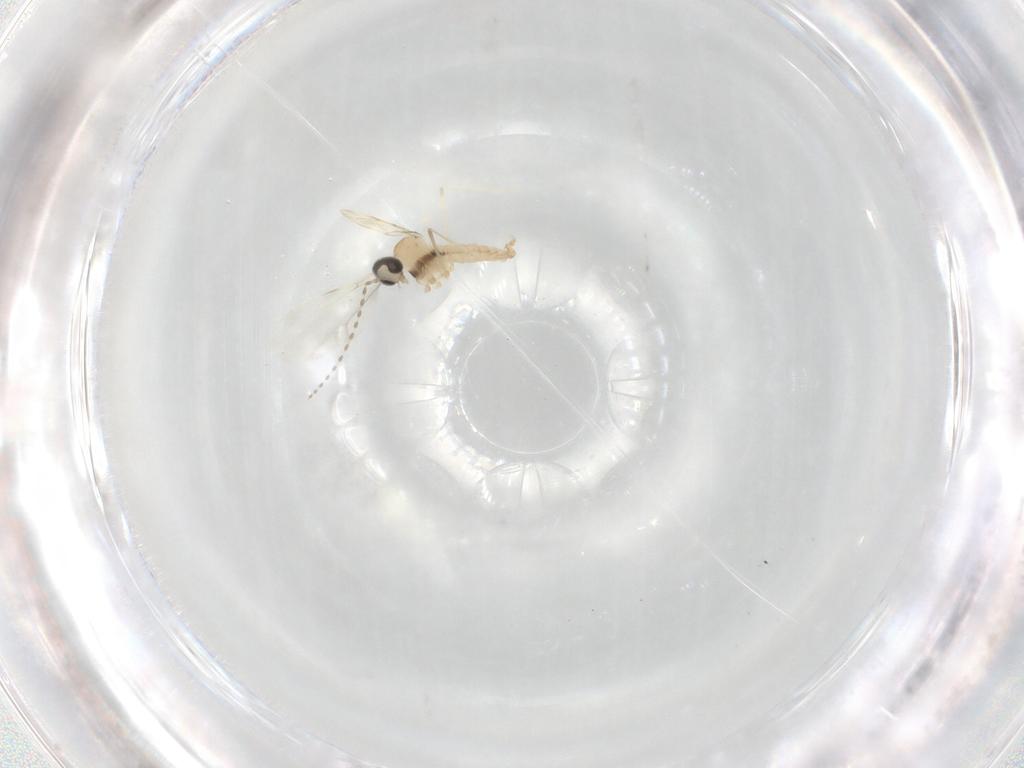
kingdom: Animalia
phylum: Arthropoda
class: Insecta
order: Diptera
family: Cecidomyiidae
